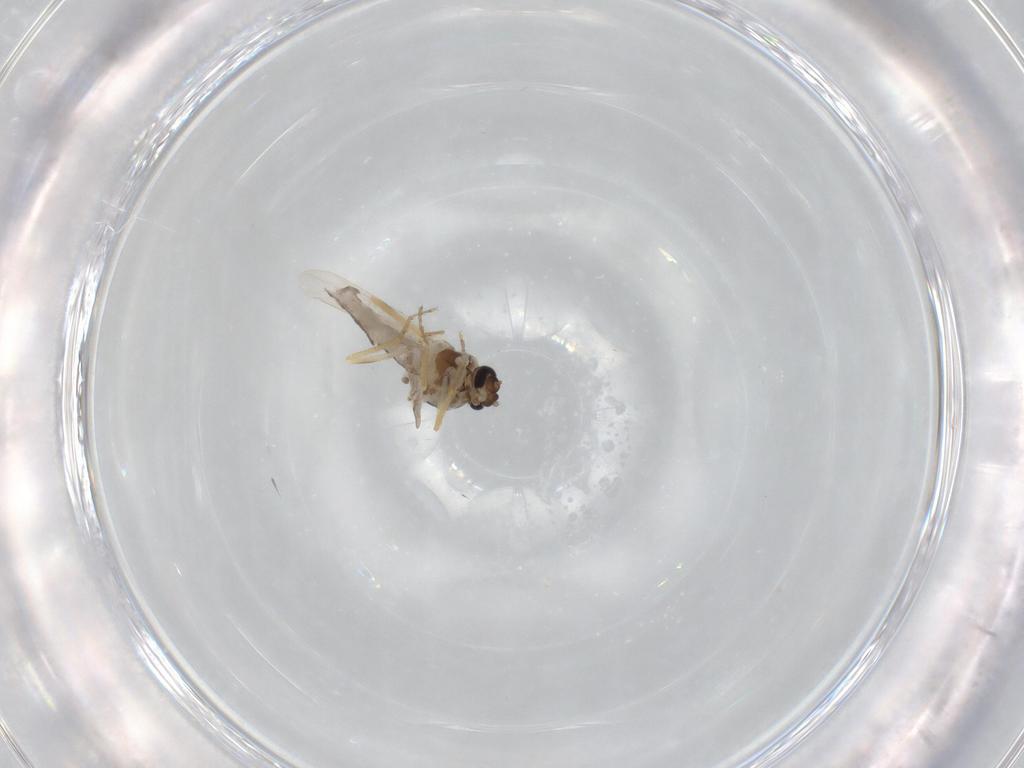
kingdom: Animalia
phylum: Arthropoda
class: Insecta
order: Diptera
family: Ceratopogonidae
